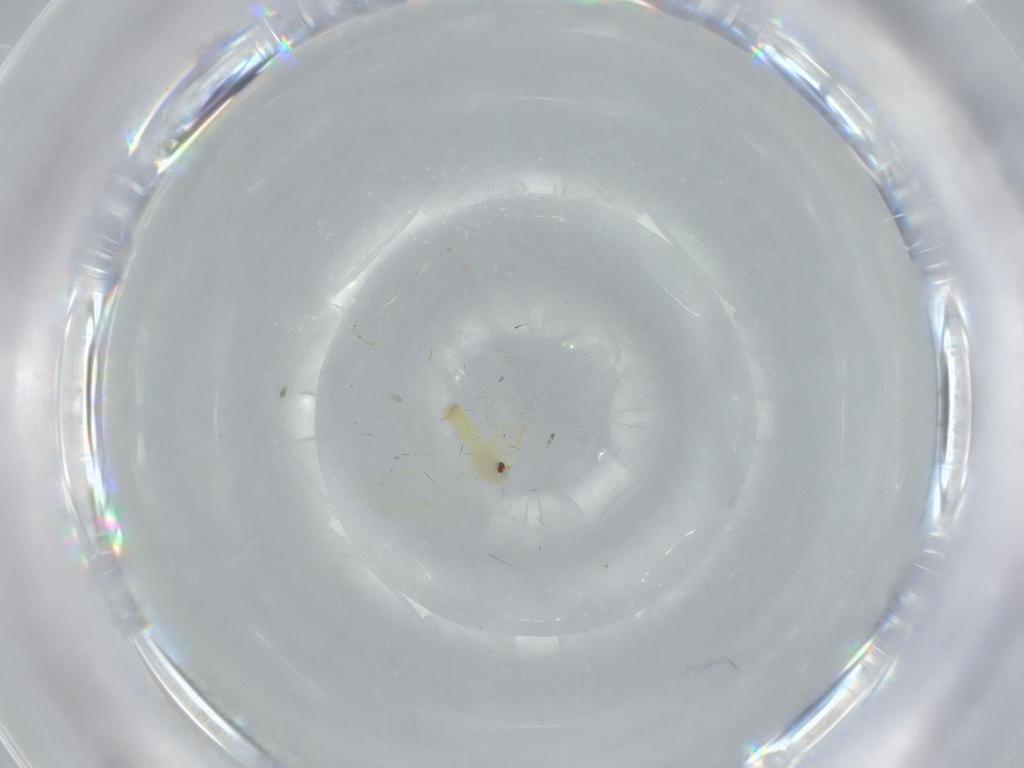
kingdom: Animalia
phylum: Arthropoda
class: Insecta
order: Hemiptera
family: Aleyrodidae
